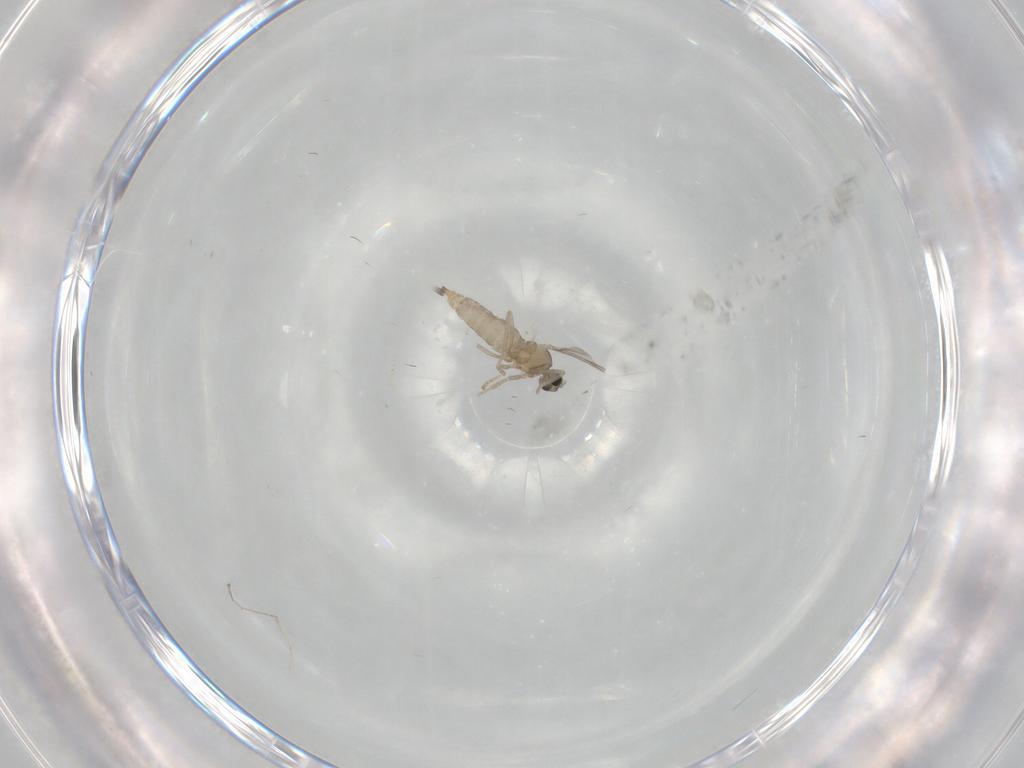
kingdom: Animalia
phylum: Arthropoda
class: Insecta
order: Diptera
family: Cecidomyiidae
